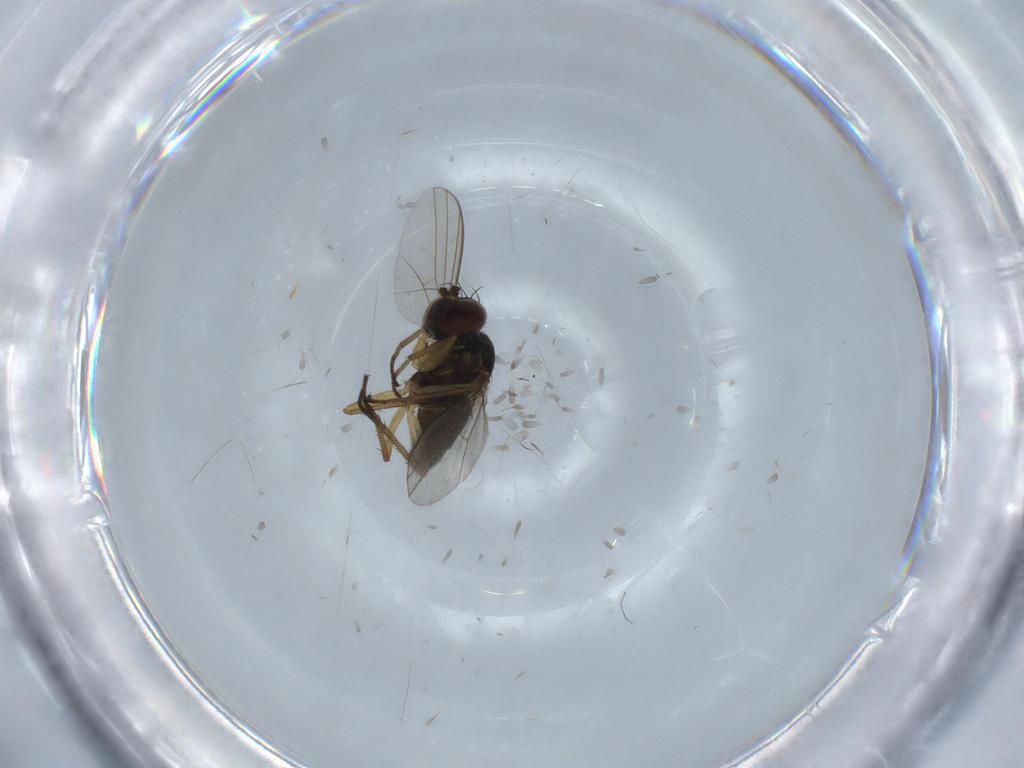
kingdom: Animalia
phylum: Arthropoda
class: Insecta
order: Diptera
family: Chironomidae
